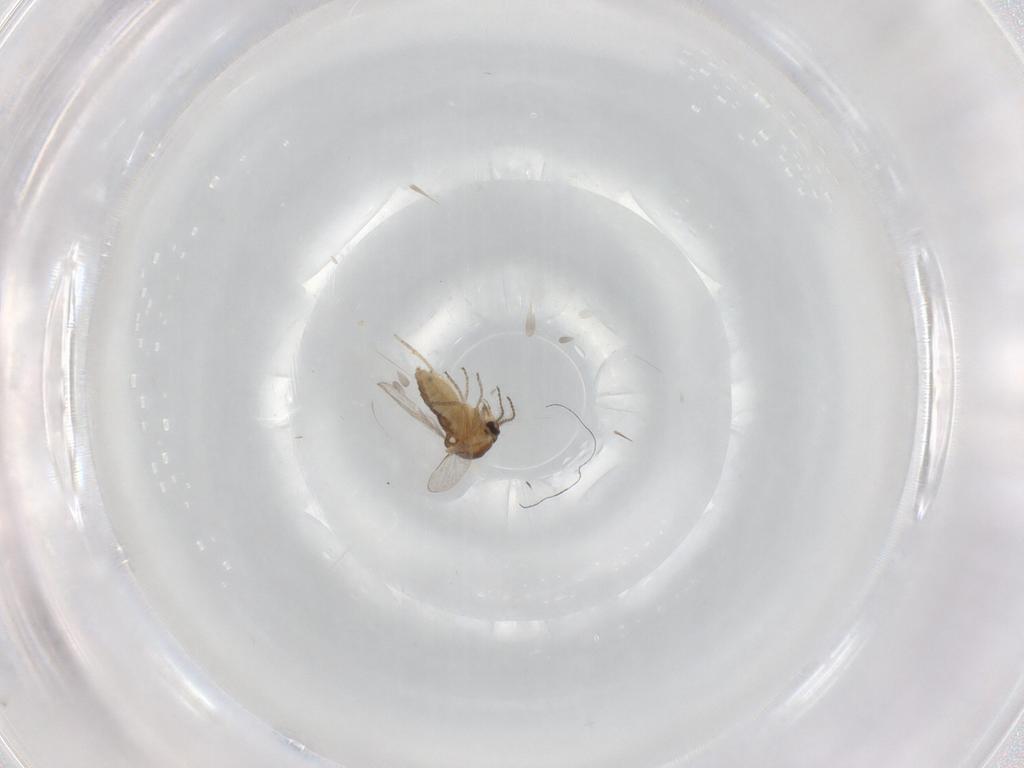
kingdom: Animalia
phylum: Arthropoda
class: Insecta
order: Diptera
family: Ceratopogonidae
